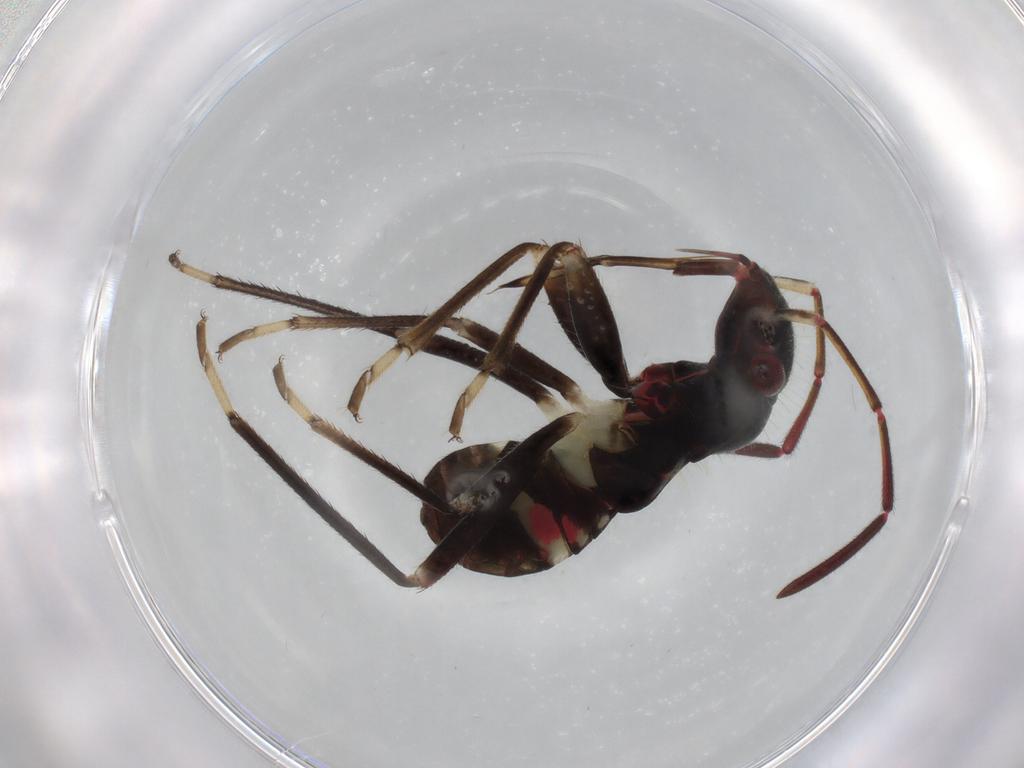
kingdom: Animalia
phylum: Arthropoda
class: Insecta
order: Hemiptera
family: Rhyparochromidae
